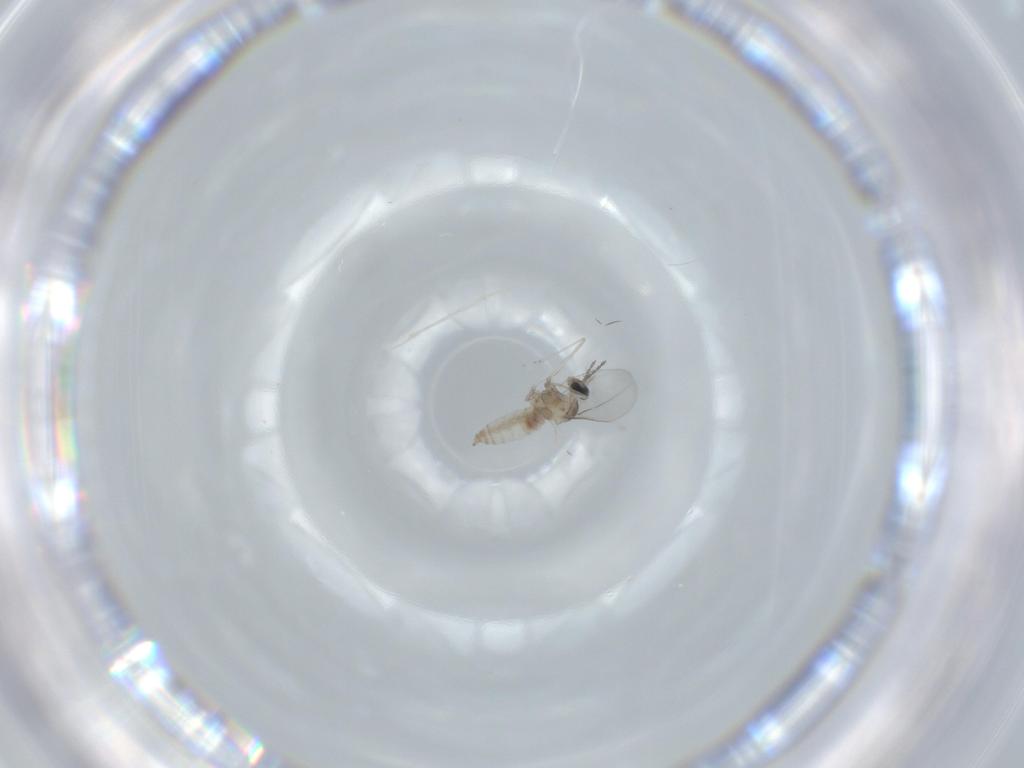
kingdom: Animalia
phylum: Arthropoda
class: Insecta
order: Diptera
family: Cecidomyiidae
